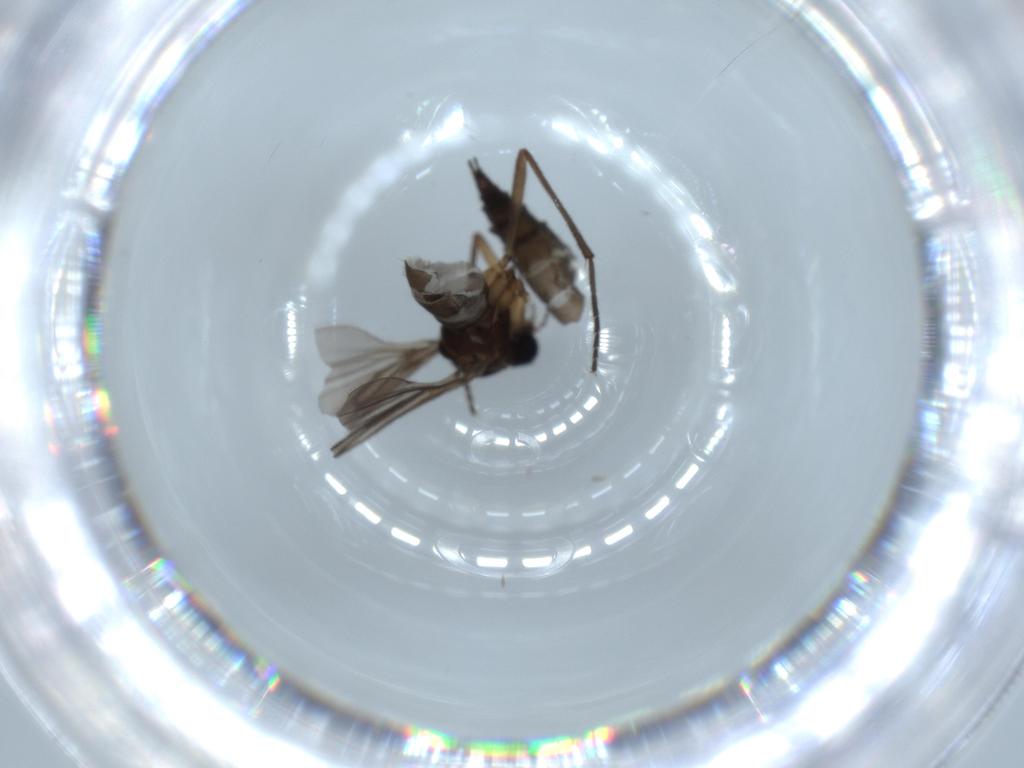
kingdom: Animalia
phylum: Arthropoda
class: Insecta
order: Diptera
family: Sciaridae
